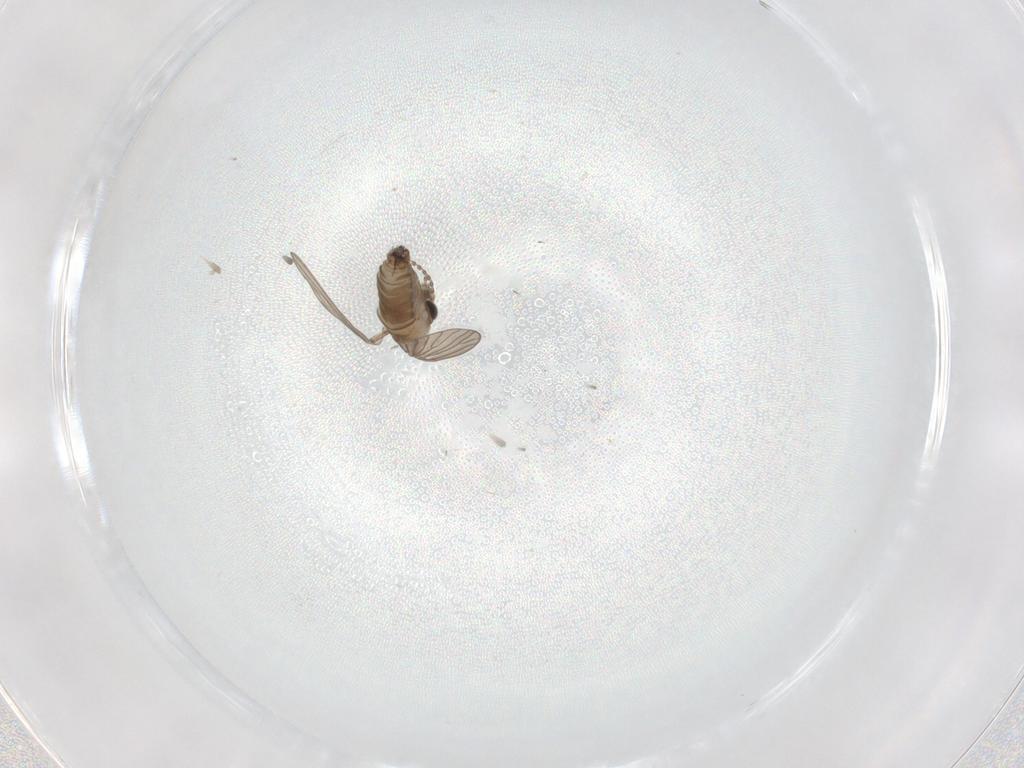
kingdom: Animalia
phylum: Arthropoda
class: Insecta
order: Diptera
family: Phoridae
